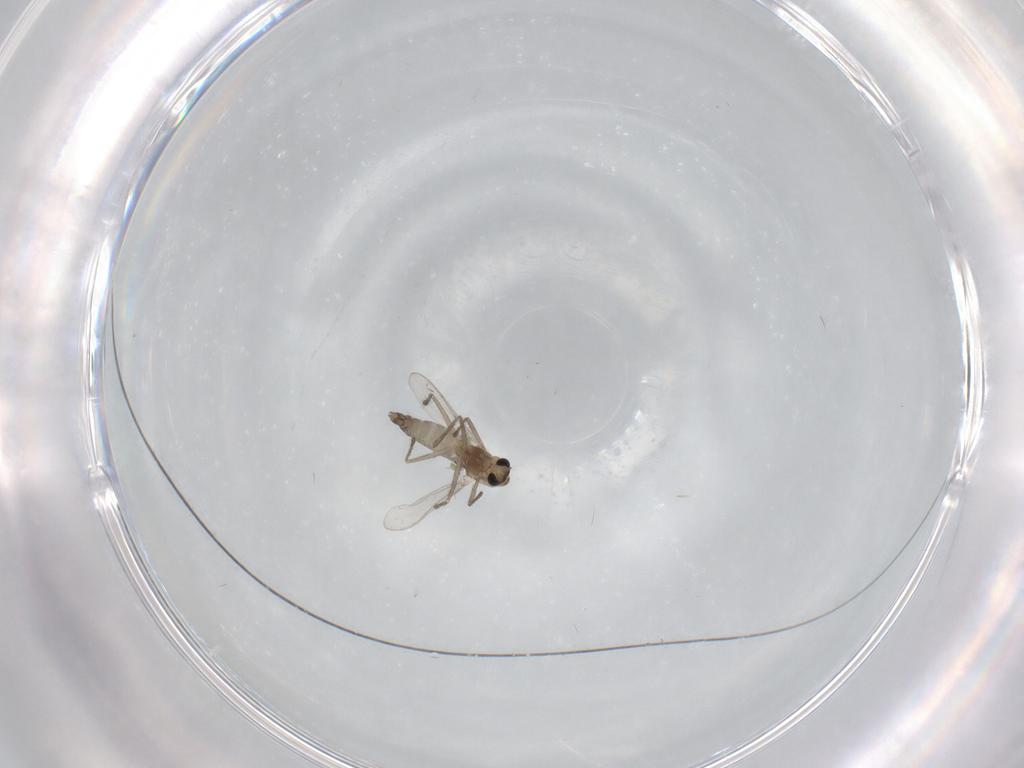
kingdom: Animalia
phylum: Arthropoda
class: Insecta
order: Diptera
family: Chironomidae
